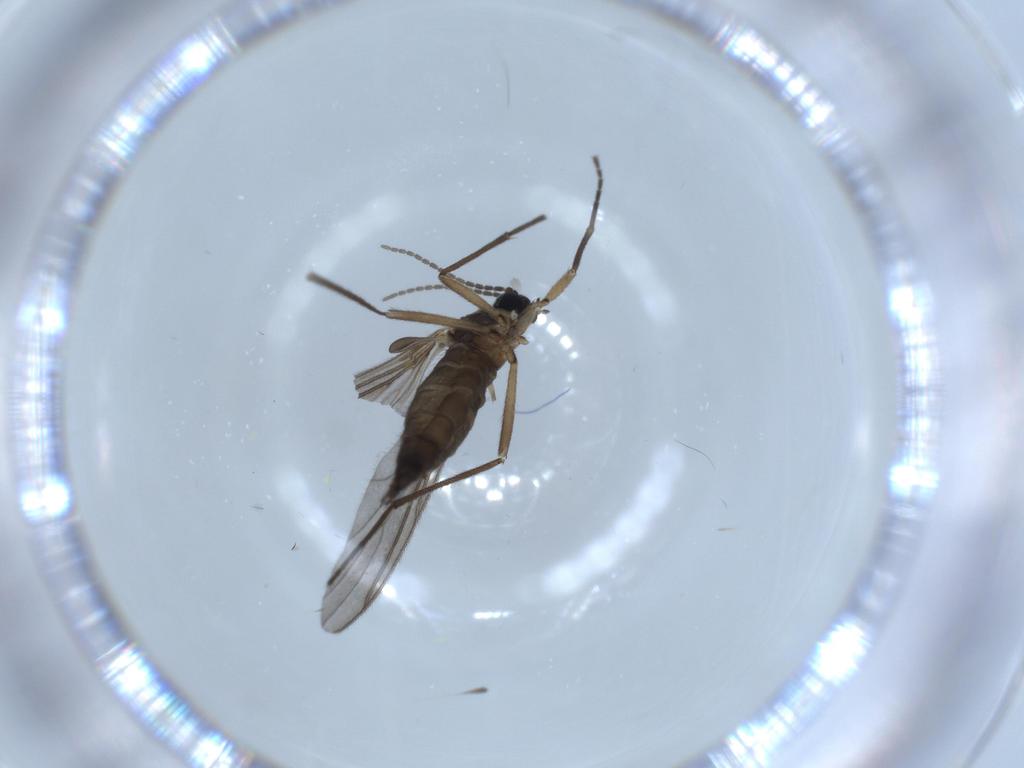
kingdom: Animalia
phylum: Arthropoda
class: Insecta
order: Diptera
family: Sciaridae
